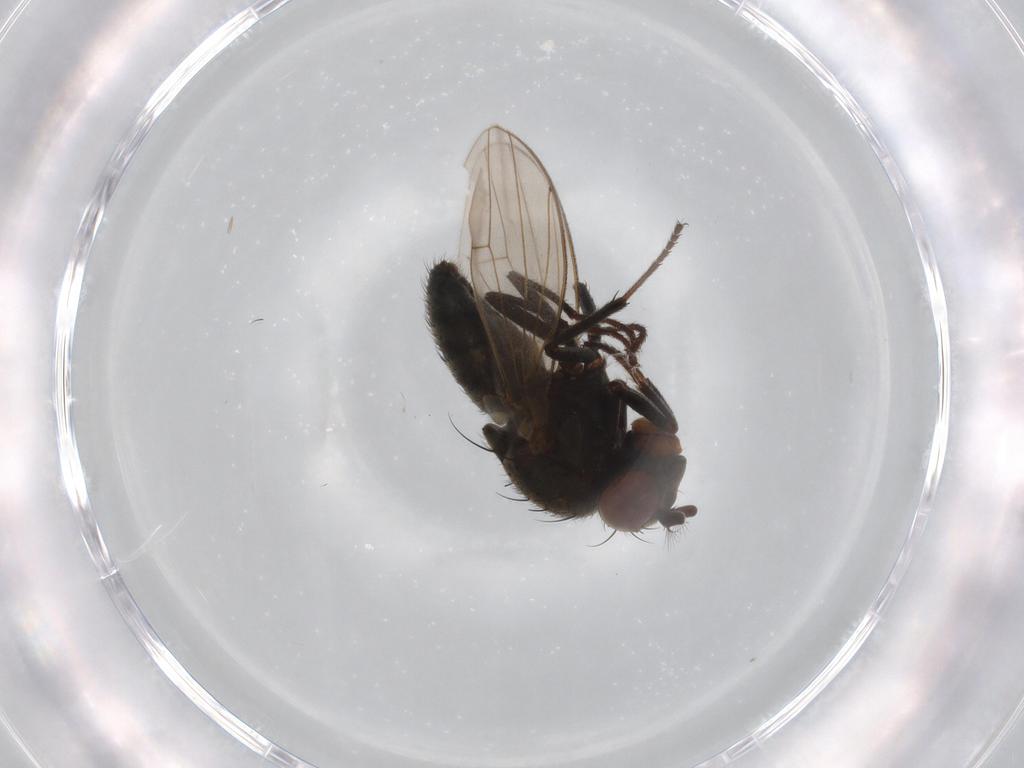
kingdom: Animalia
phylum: Arthropoda
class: Insecta
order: Diptera
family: Ephydridae
